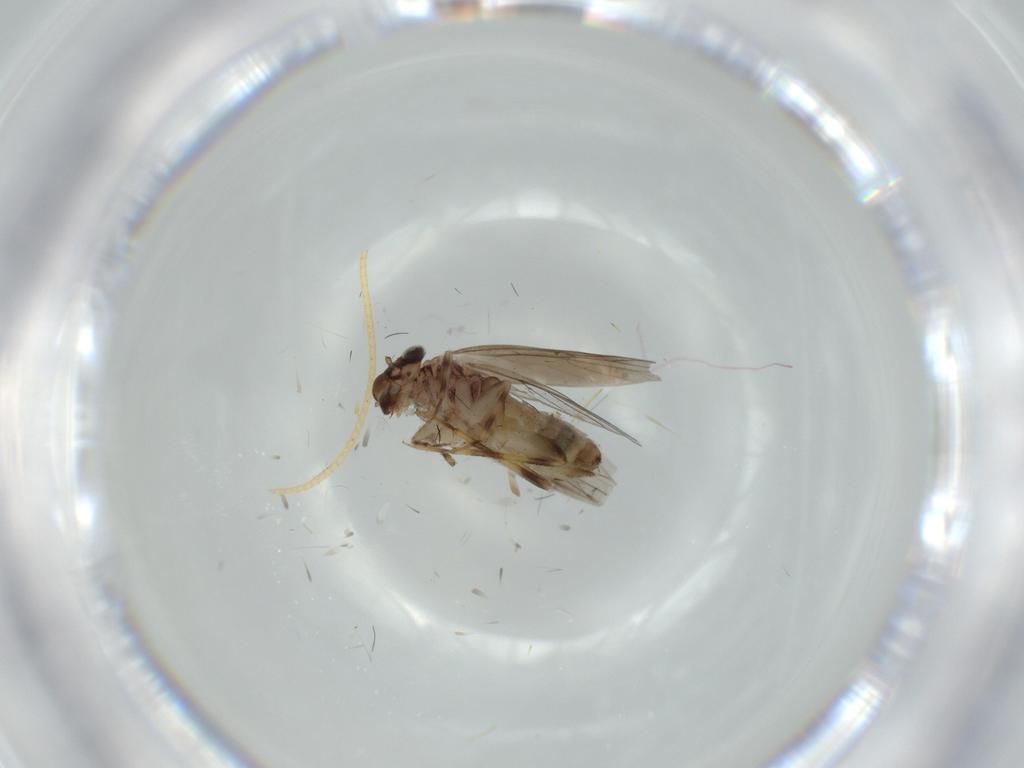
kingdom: Animalia
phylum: Arthropoda
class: Insecta
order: Psocodea
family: Lepidopsocidae
